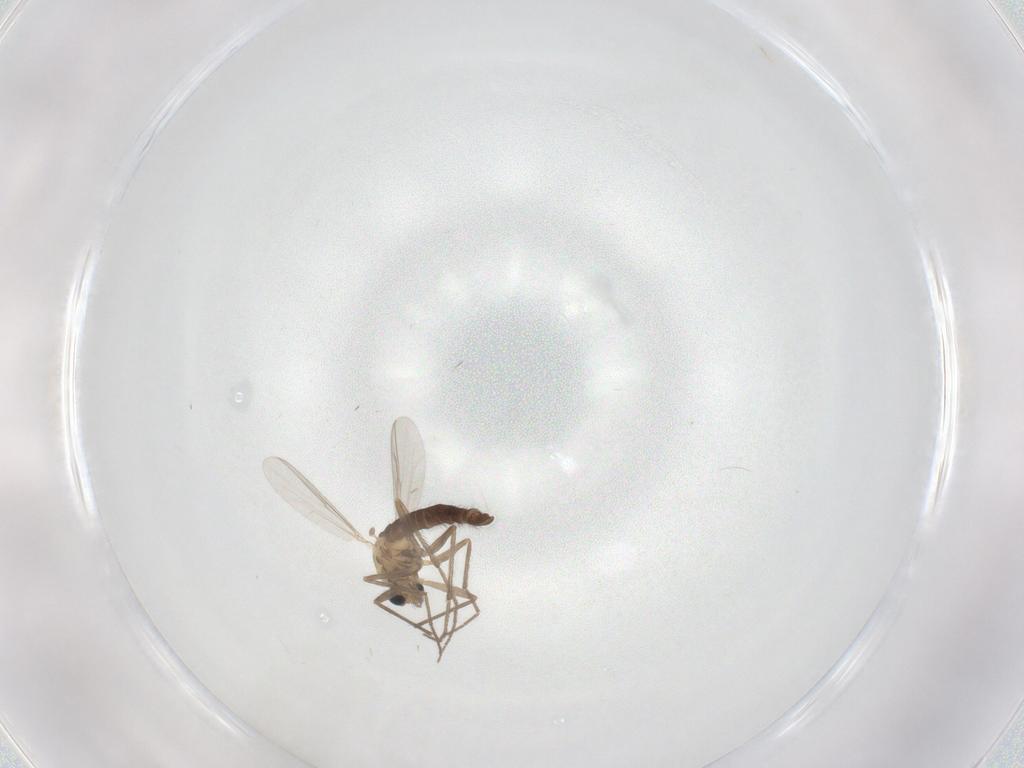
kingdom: Animalia
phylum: Arthropoda
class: Insecta
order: Diptera
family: Chironomidae
